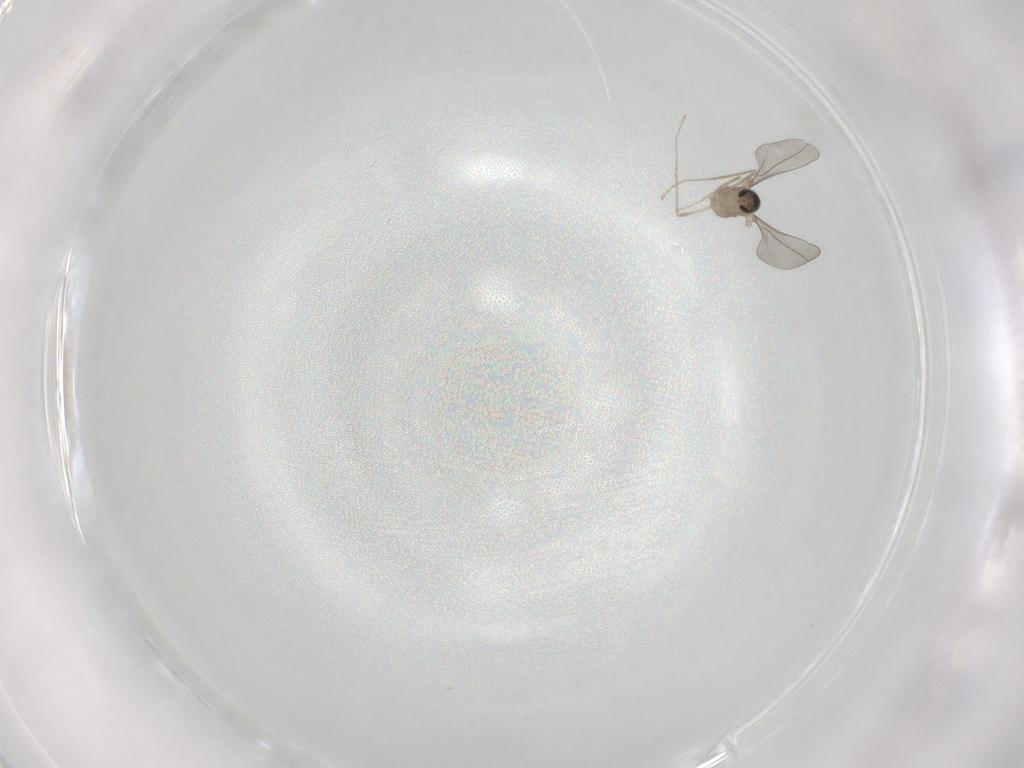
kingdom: Animalia
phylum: Arthropoda
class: Insecta
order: Diptera
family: Cecidomyiidae
